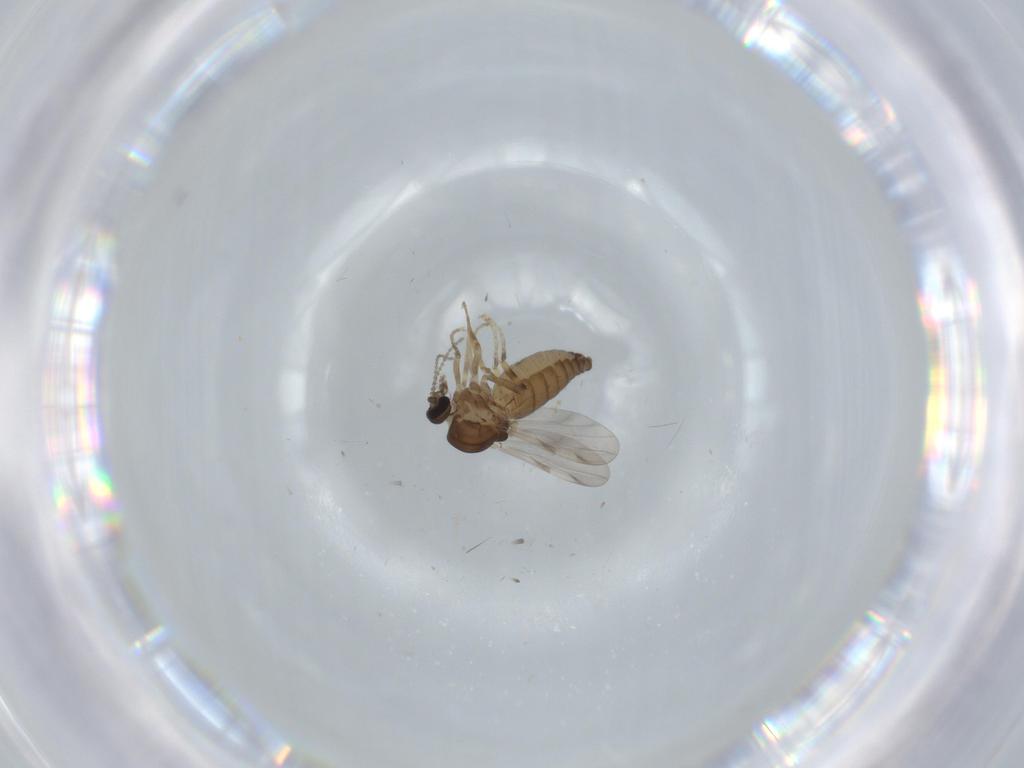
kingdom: Animalia
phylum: Arthropoda
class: Insecta
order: Diptera
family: Ceratopogonidae
